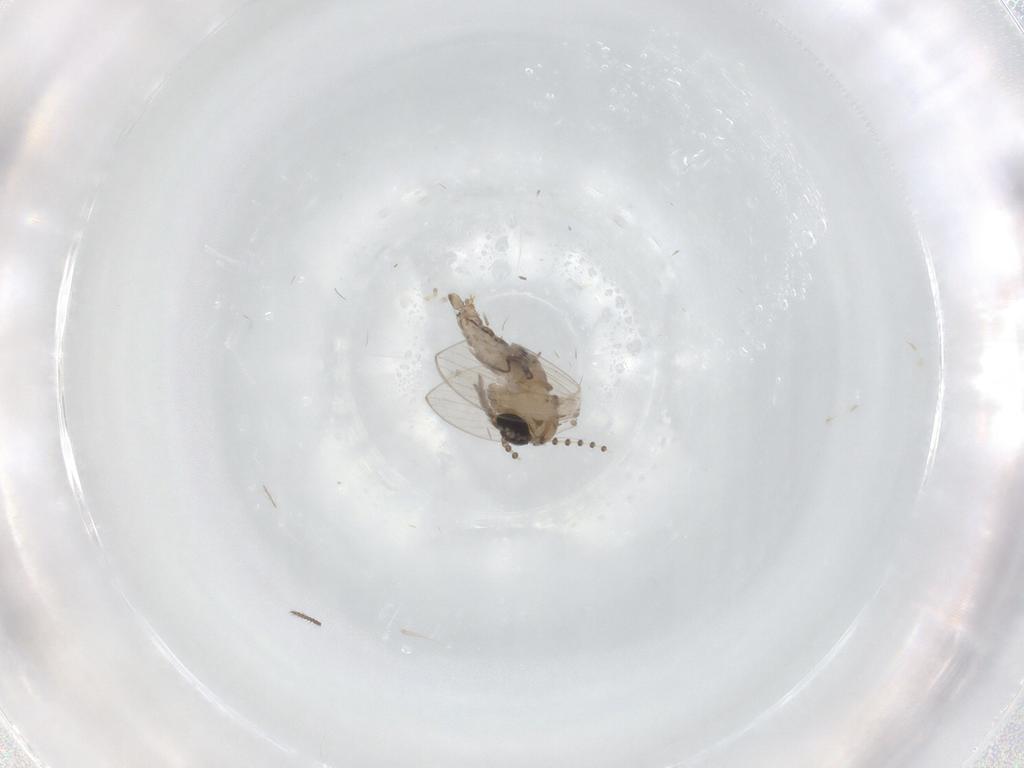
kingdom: Animalia
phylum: Arthropoda
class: Insecta
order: Diptera
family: Psychodidae
